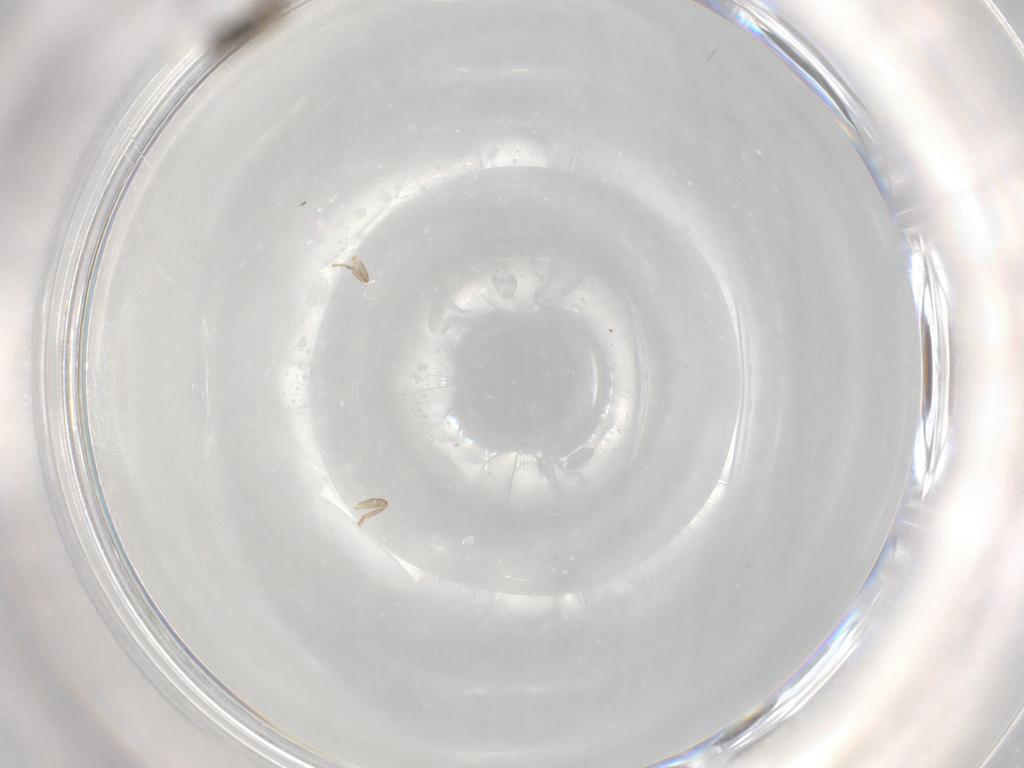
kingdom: Animalia
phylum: Arthropoda
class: Insecta
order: Diptera
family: Phoridae
